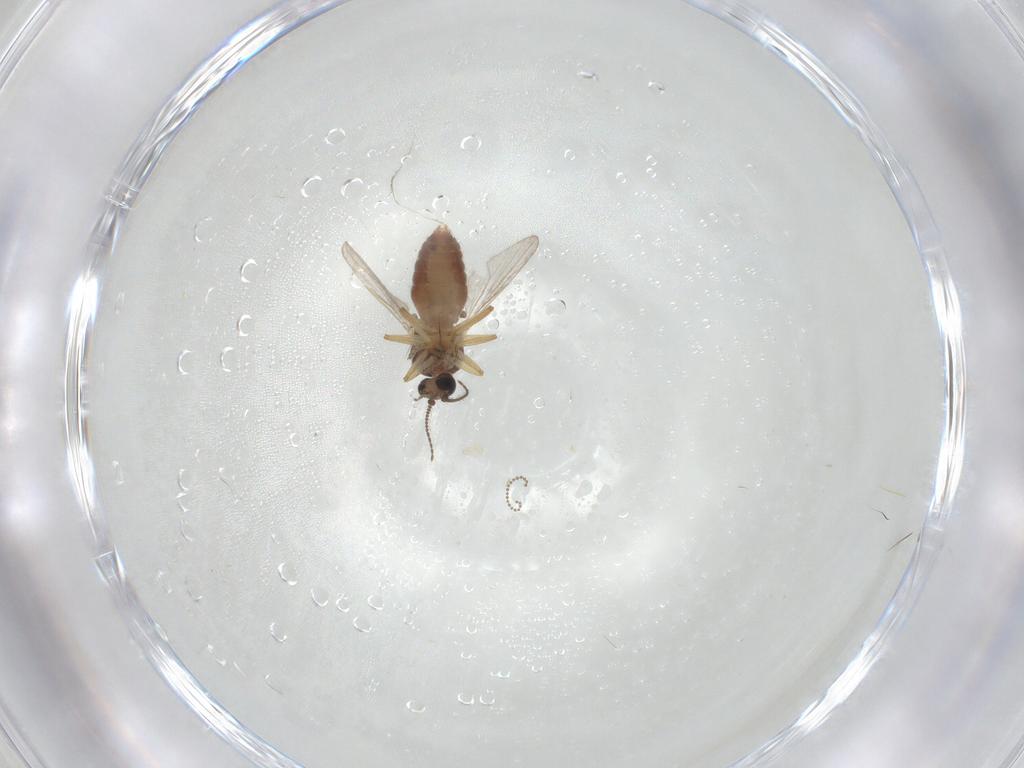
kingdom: Animalia
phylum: Arthropoda
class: Insecta
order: Diptera
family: Ceratopogonidae
